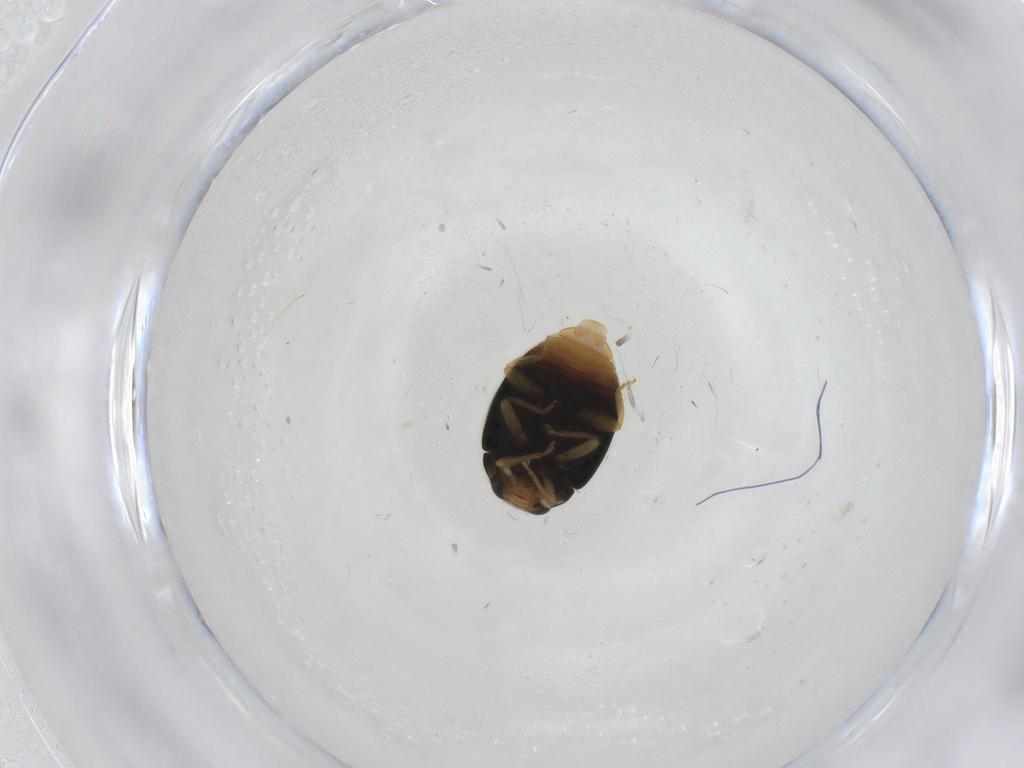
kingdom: Animalia
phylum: Arthropoda
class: Insecta
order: Coleoptera
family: Coccinellidae
